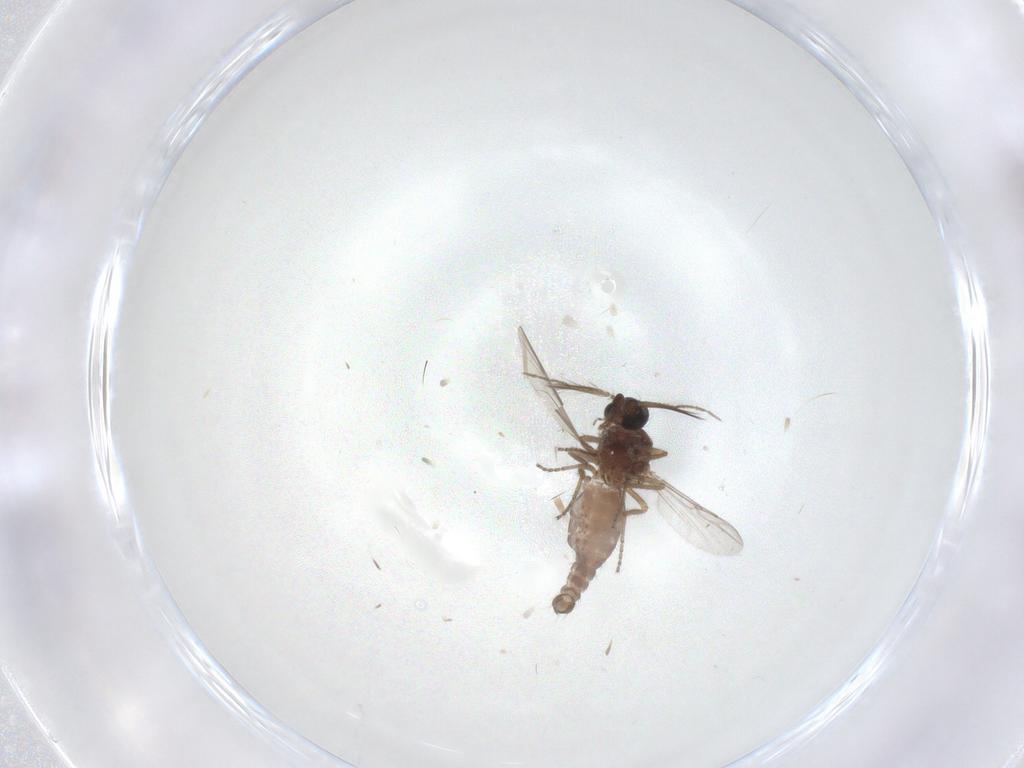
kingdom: Animalia
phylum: Arthropoda
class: Insecta
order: Diptera
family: Ceratopogonidae
